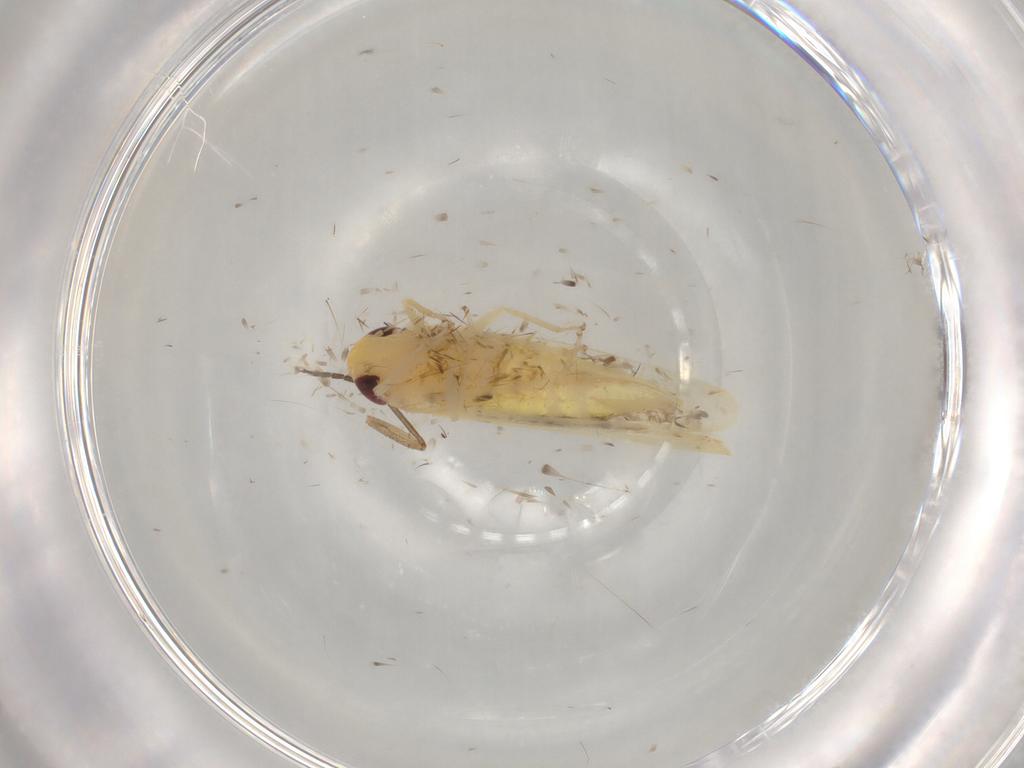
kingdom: Animalia
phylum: Arthropoda
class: Insecta
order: Hemiptera
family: Cicadellidae
